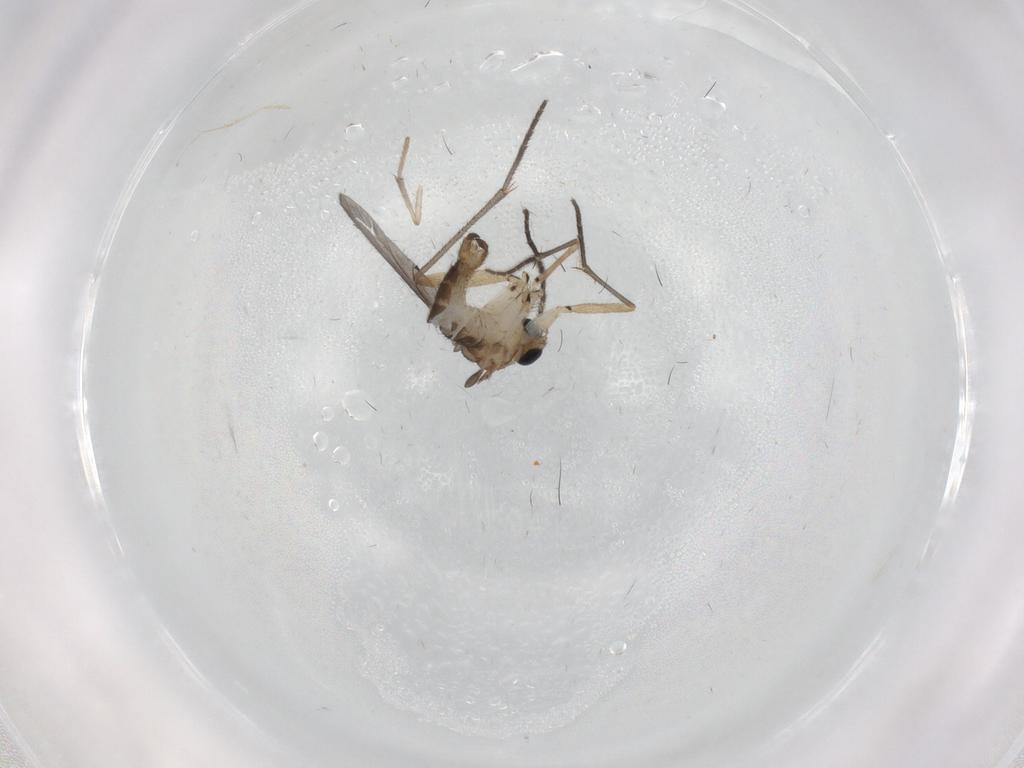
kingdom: Animalia
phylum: Arthropoda
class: Insecta
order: Diptera
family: Sciaridae
